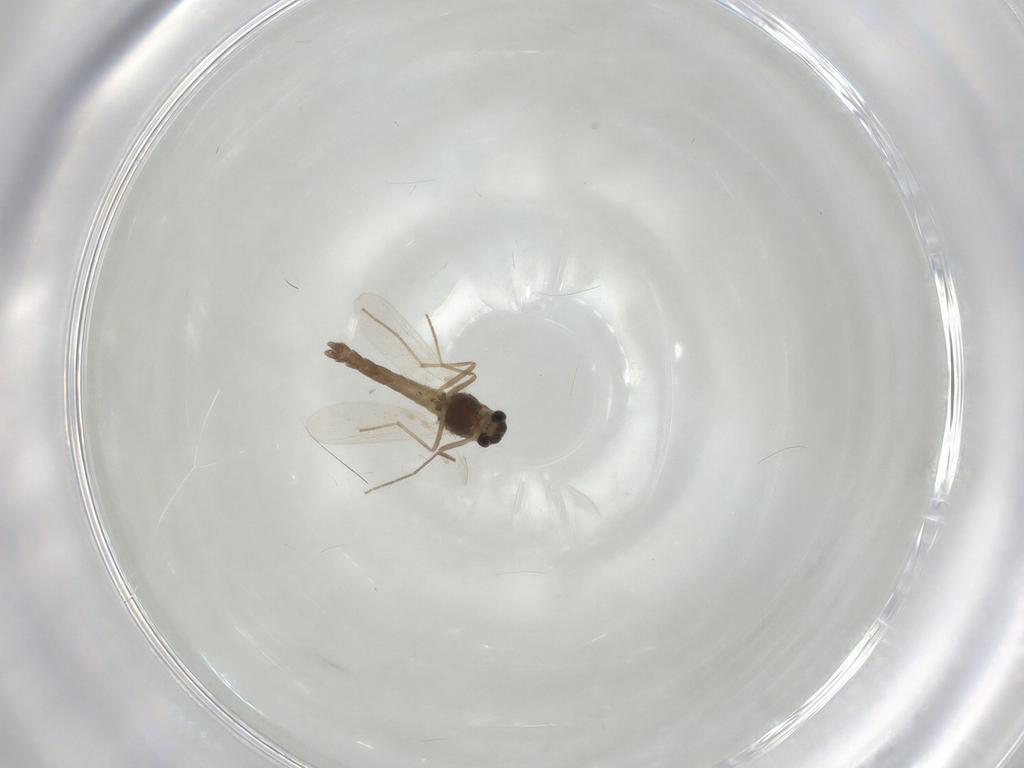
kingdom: Animalia
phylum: Arthropoda
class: Insecta
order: Diptera
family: Chironomidae
